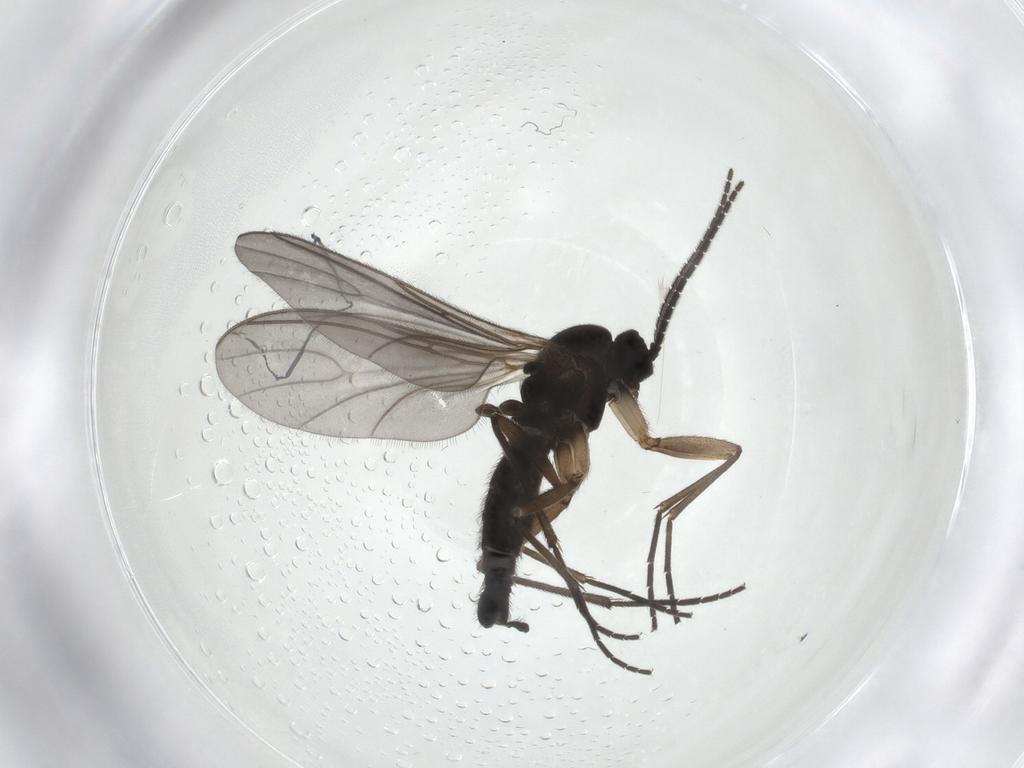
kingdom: Animalia
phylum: Arthropoda
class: Insecta
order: Diptera
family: Sciaridae
